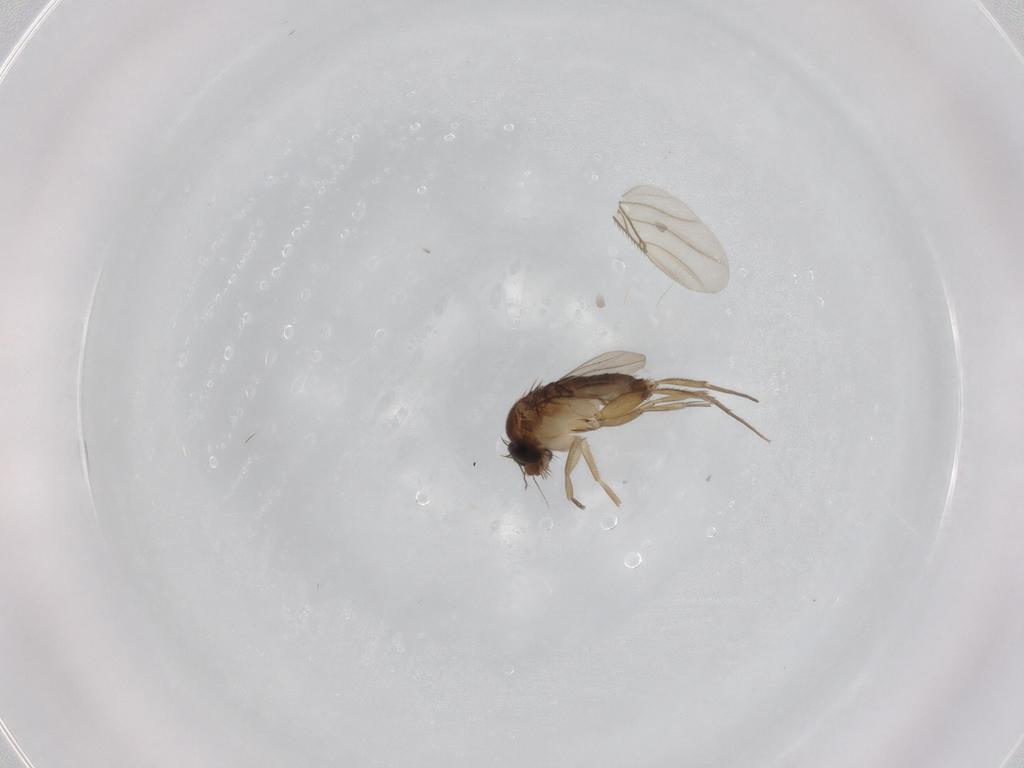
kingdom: Animalia
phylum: Arthropoda
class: Insecta
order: Diptera
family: Phoridae
